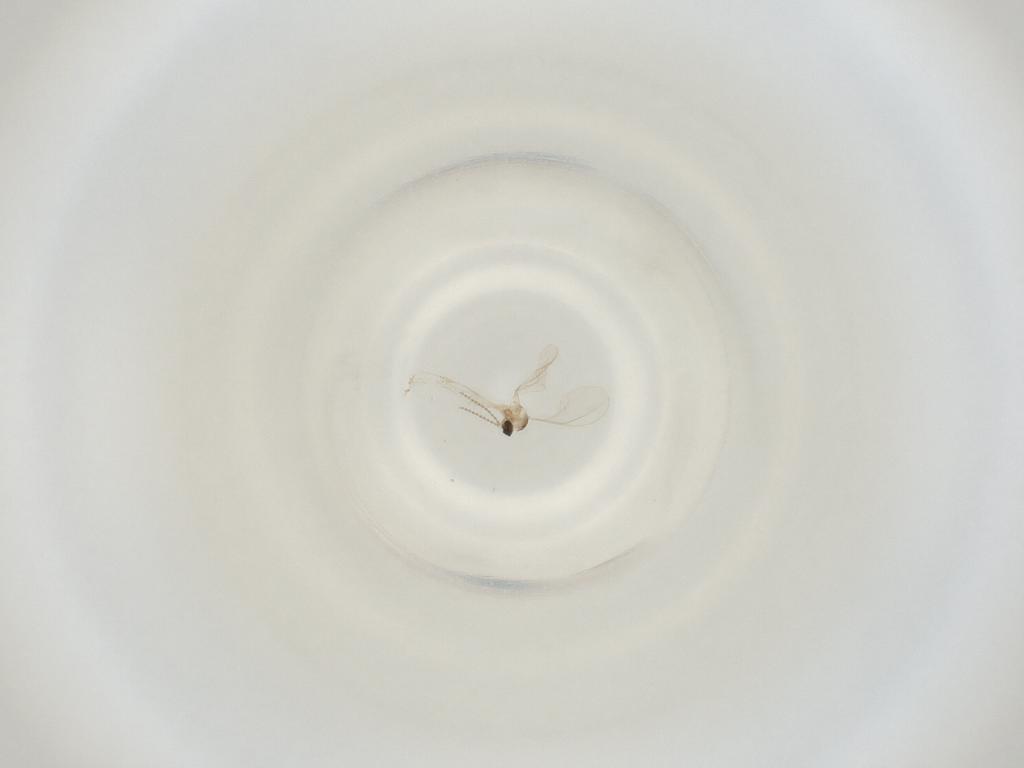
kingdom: Animalia
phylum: Arthropoda
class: Insecta
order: Diptera
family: Cecidomyiidae
